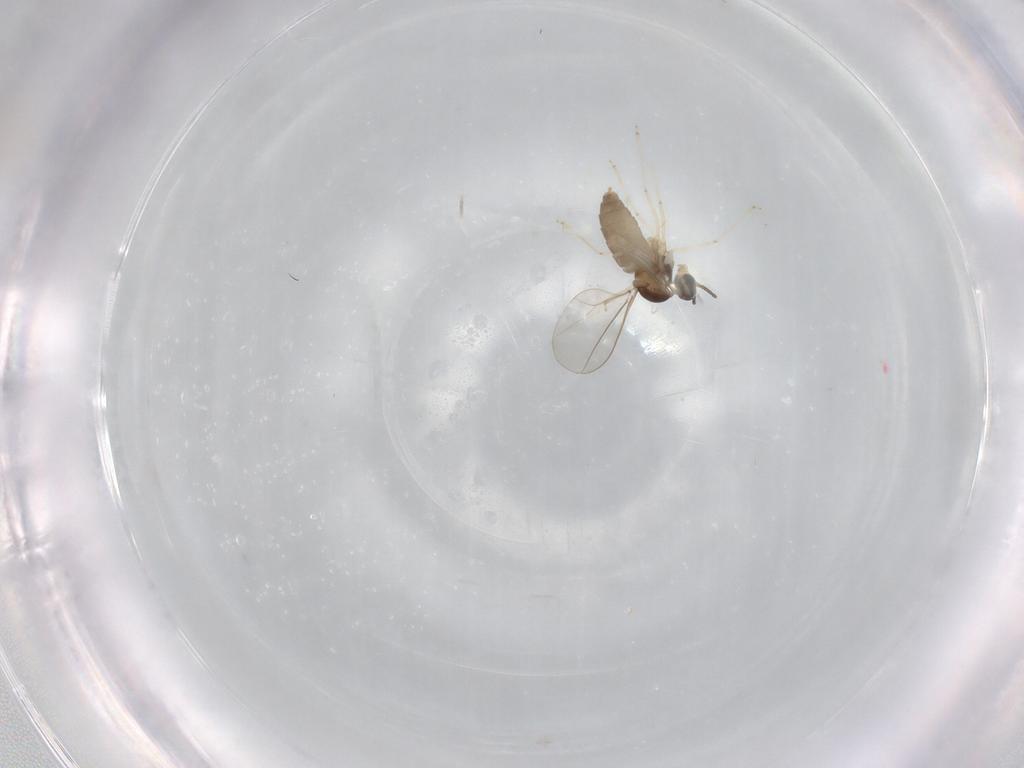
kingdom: Animalia
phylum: Arthropoda
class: Insecta
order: Diptera
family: Cecidomyiidae
